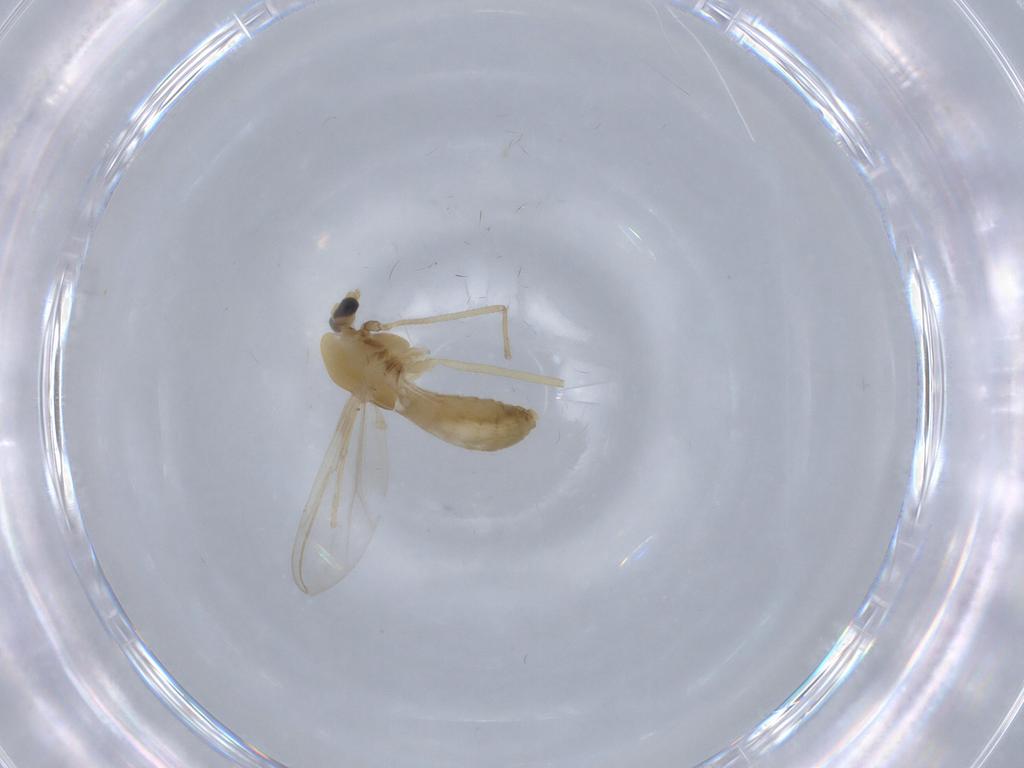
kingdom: Animalia
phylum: Arthropoda
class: Insecta
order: Diptera
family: Chironomidae
